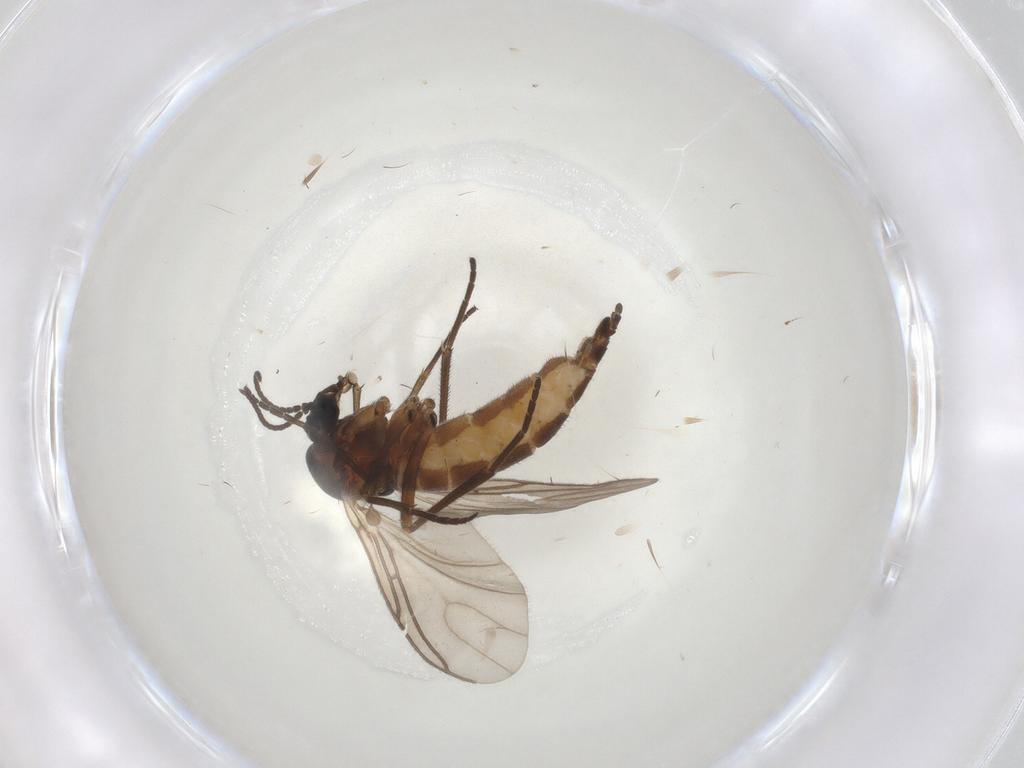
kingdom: Animalia
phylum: Arthropoda
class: Insecta
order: Diptera
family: Sciaridae
